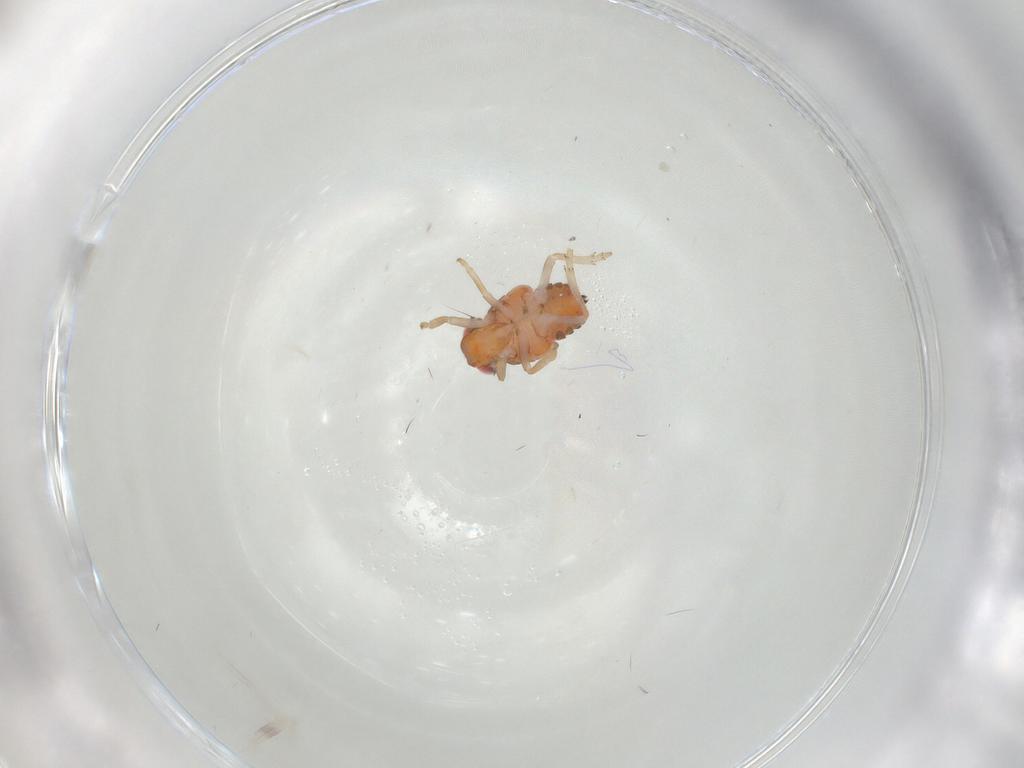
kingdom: Animalia
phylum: Arthropoda
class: Insecta
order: Hemiptera
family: Issidae
